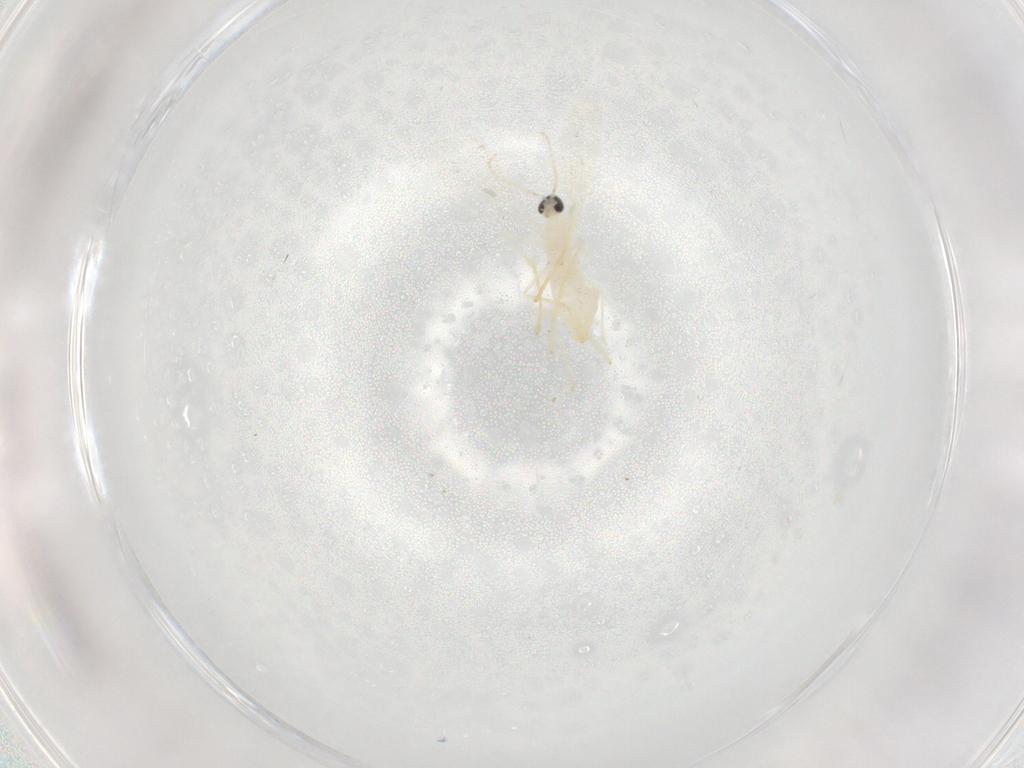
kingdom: Animalia
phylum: Arthropoda
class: Insecta
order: Diptera
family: Cecidomyiidae
